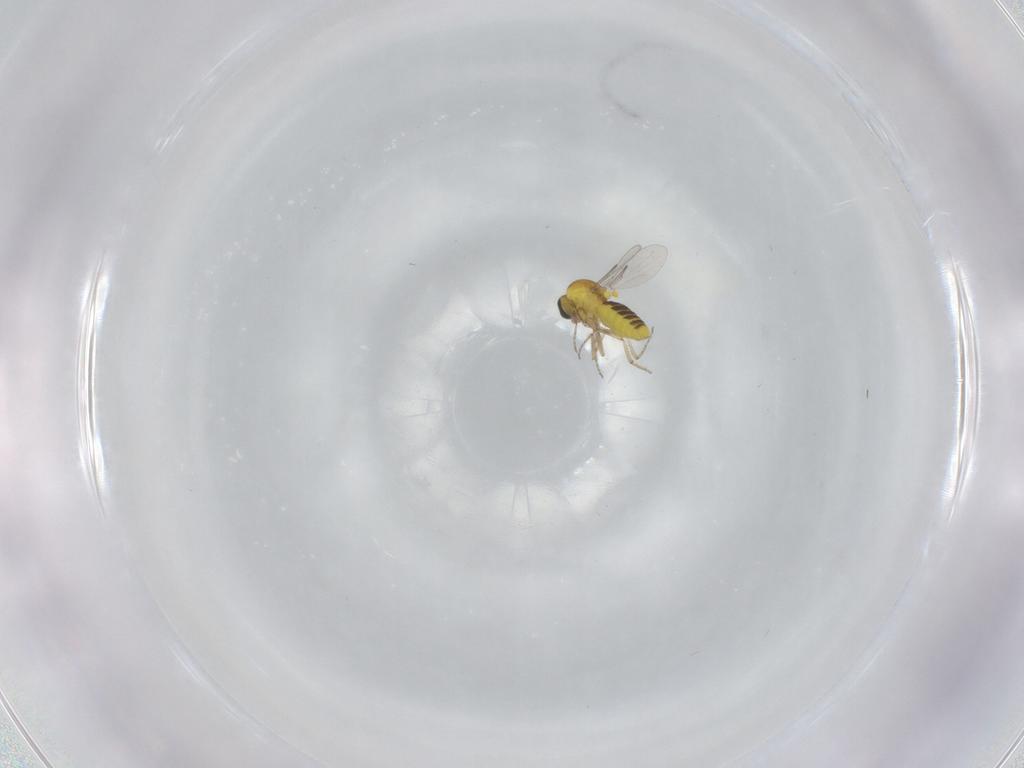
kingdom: Animalia
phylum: Arthropoda
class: Insecta
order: Diptera
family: Ceratopogonidae
